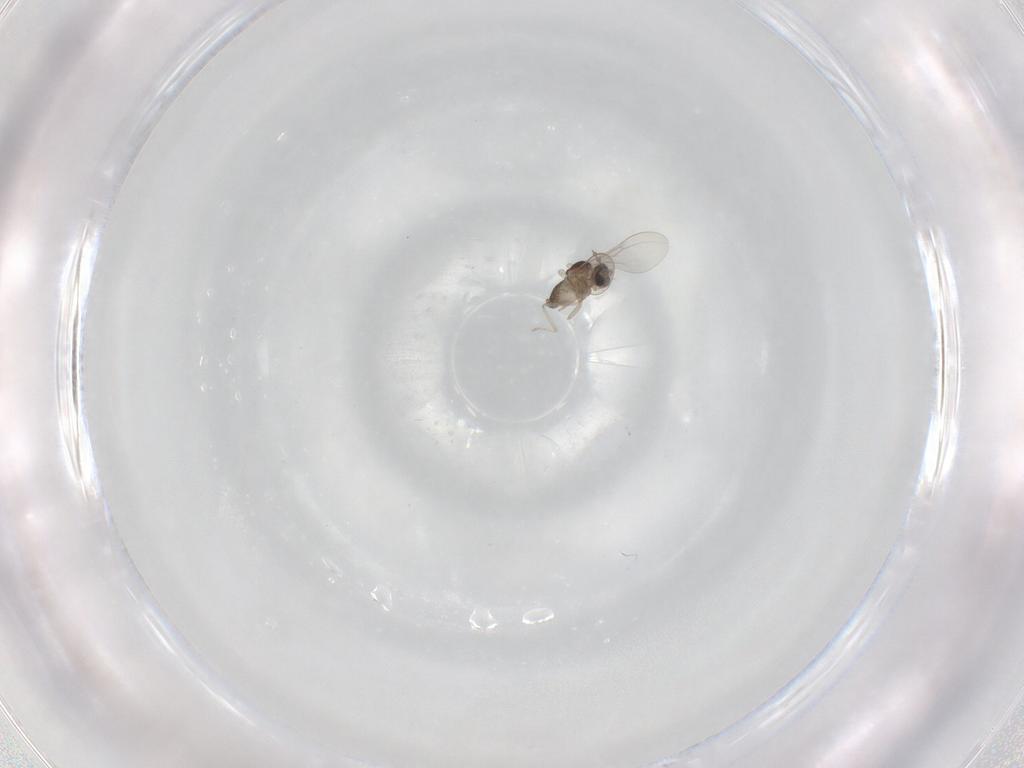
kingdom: Animalia
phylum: Arthropoda
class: Insecta
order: Diptera
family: Cecidomyiidae
